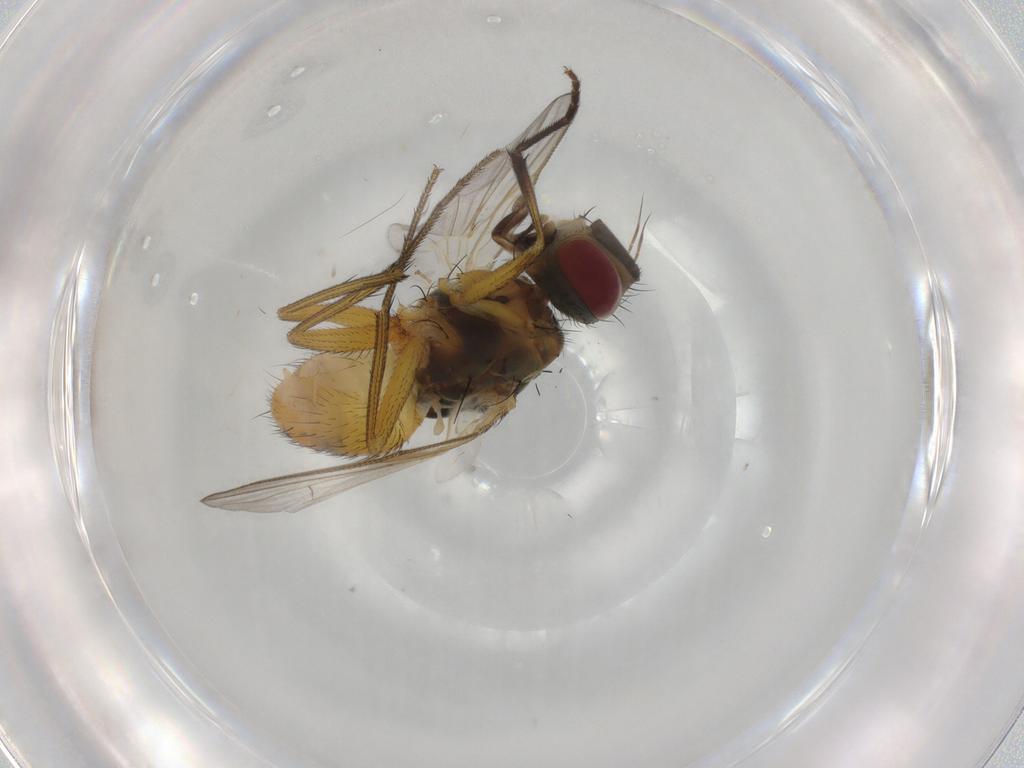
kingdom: Animalia
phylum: Arthropoda
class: Insecta
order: Diptera
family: Muscidae
